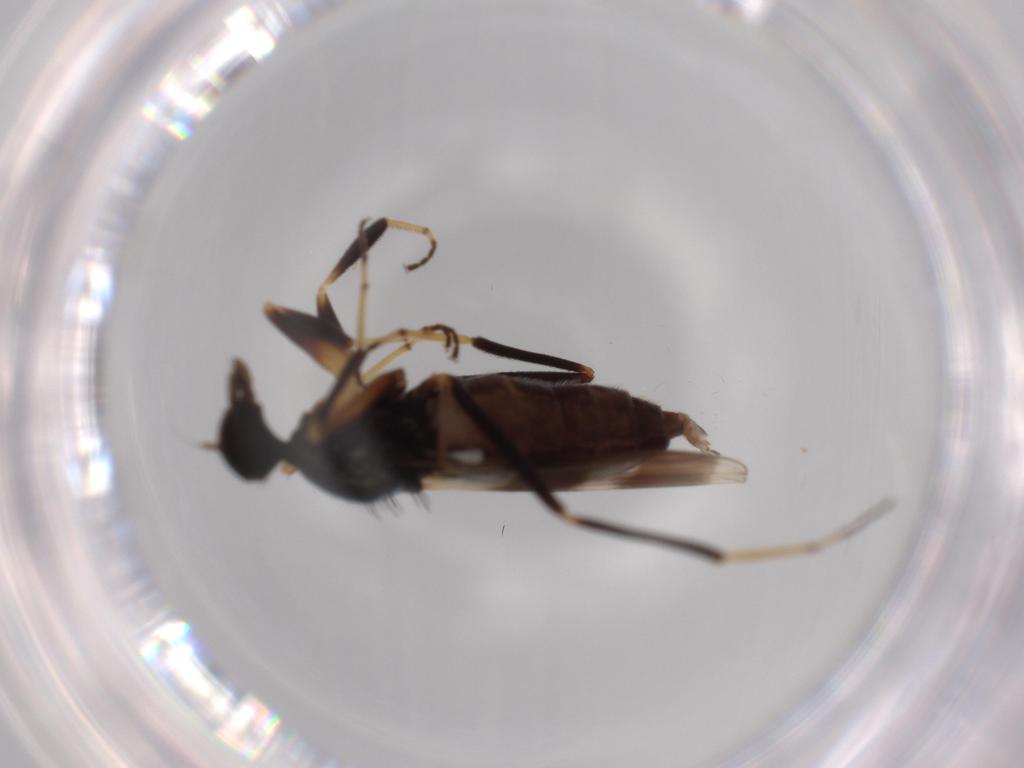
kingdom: Animalia
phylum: Arthropoda
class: Insecta
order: Diptera
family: Hybotidae
